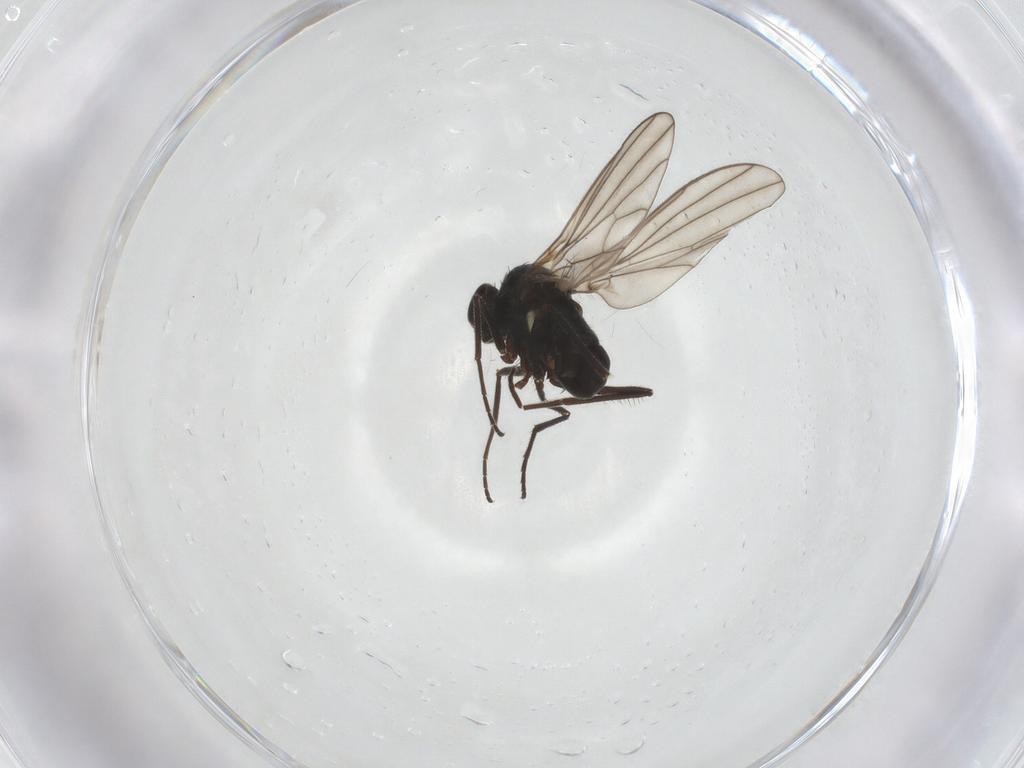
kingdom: Animalia
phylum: Arthropoda
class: Insecta
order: Diptera
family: Dolichopodidae
